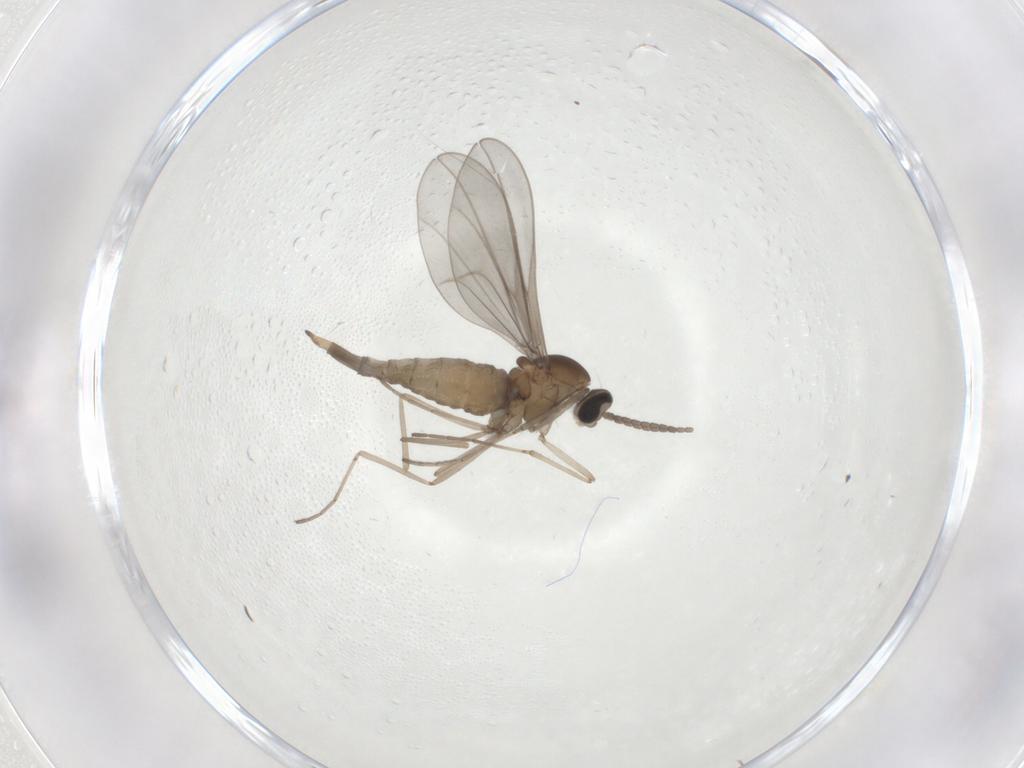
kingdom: Animalia
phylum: Arthropoda
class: Insecta
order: Diptera
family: Cecidomyiidae
